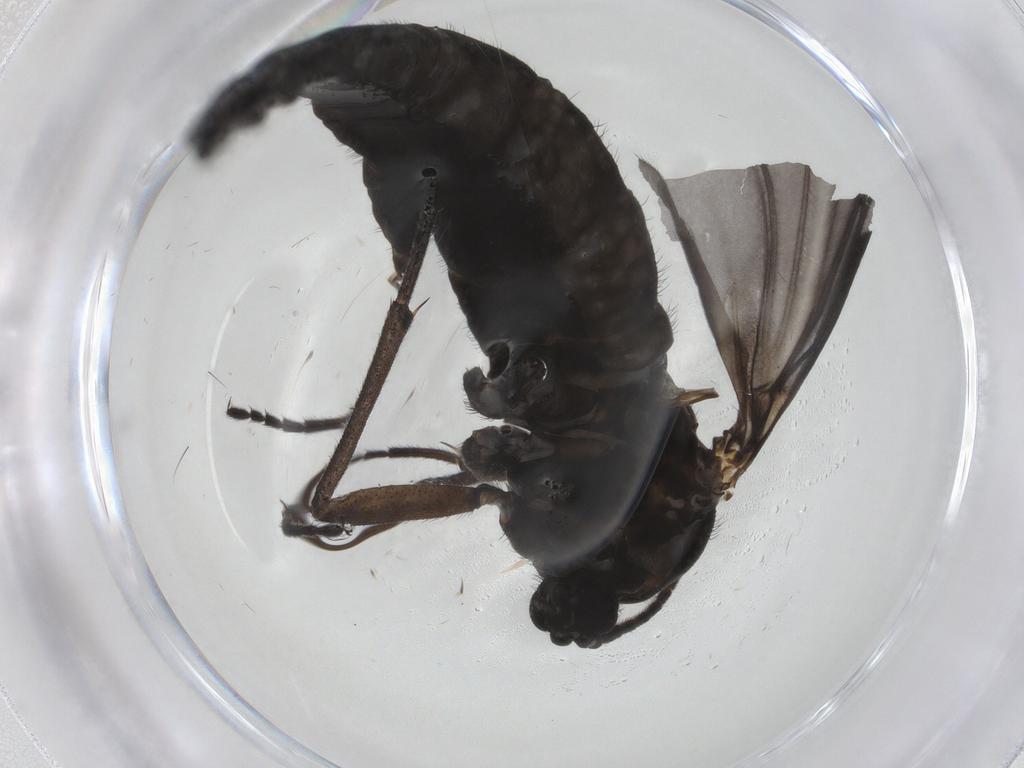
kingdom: Animalia
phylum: Arthropoda
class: Insecta
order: Diptera
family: Sciaridae
